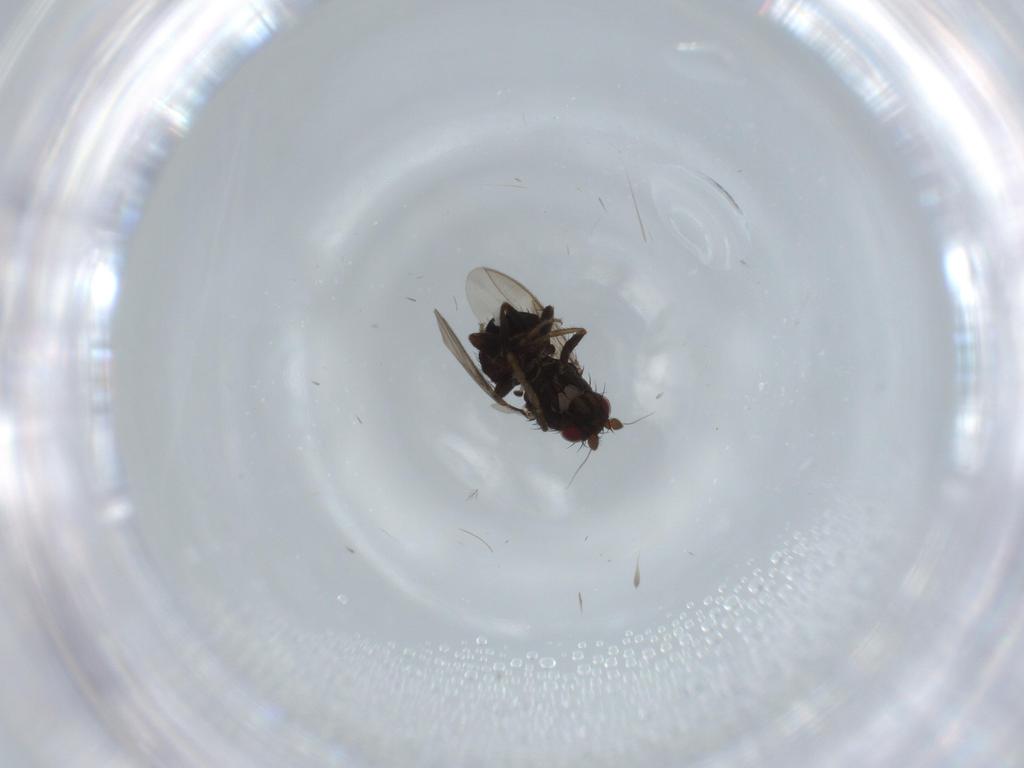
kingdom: Animalia
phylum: Arthropoda
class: Insecta
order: Diptera
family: Sphaeroceridae
